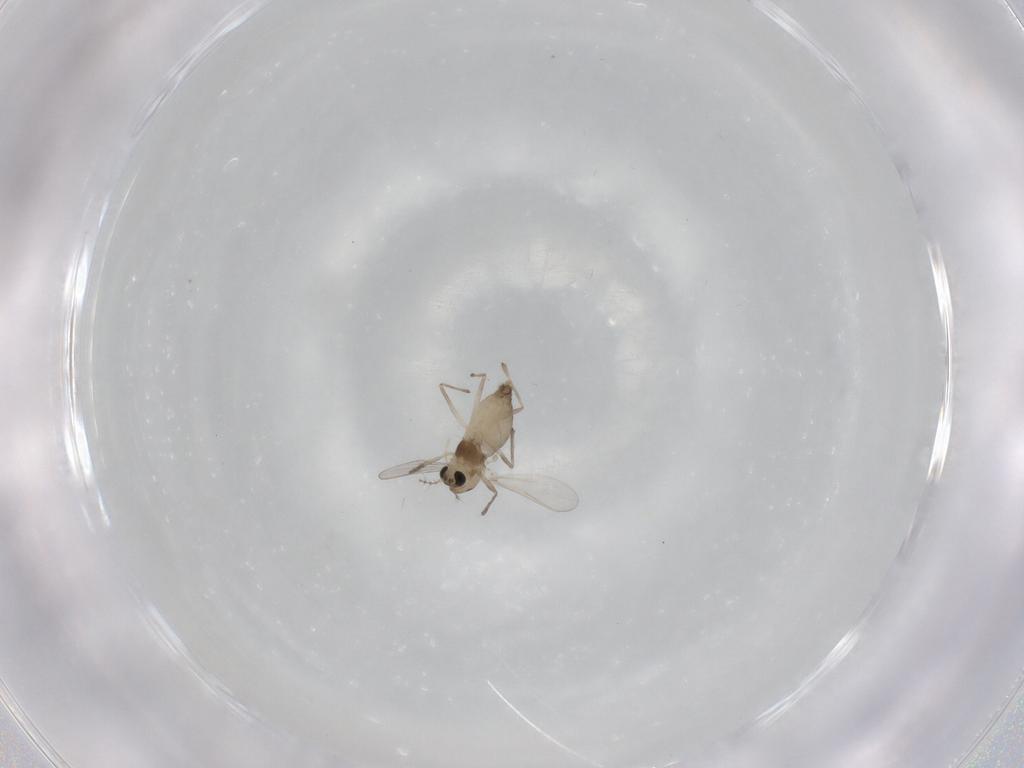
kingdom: Animalia
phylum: Arthropoda
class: Insecta
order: Diptera
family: Chironomidae
